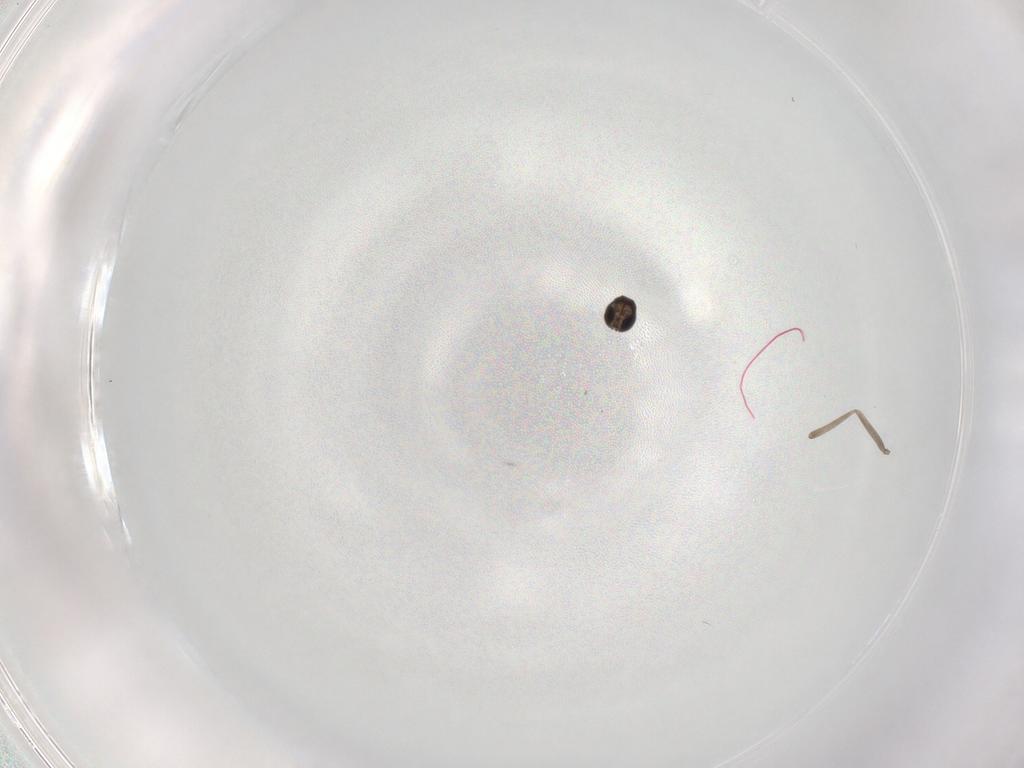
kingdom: Animalia
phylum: Arthropoda
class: Insecta
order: Diptera
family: Cecidomyiidae
